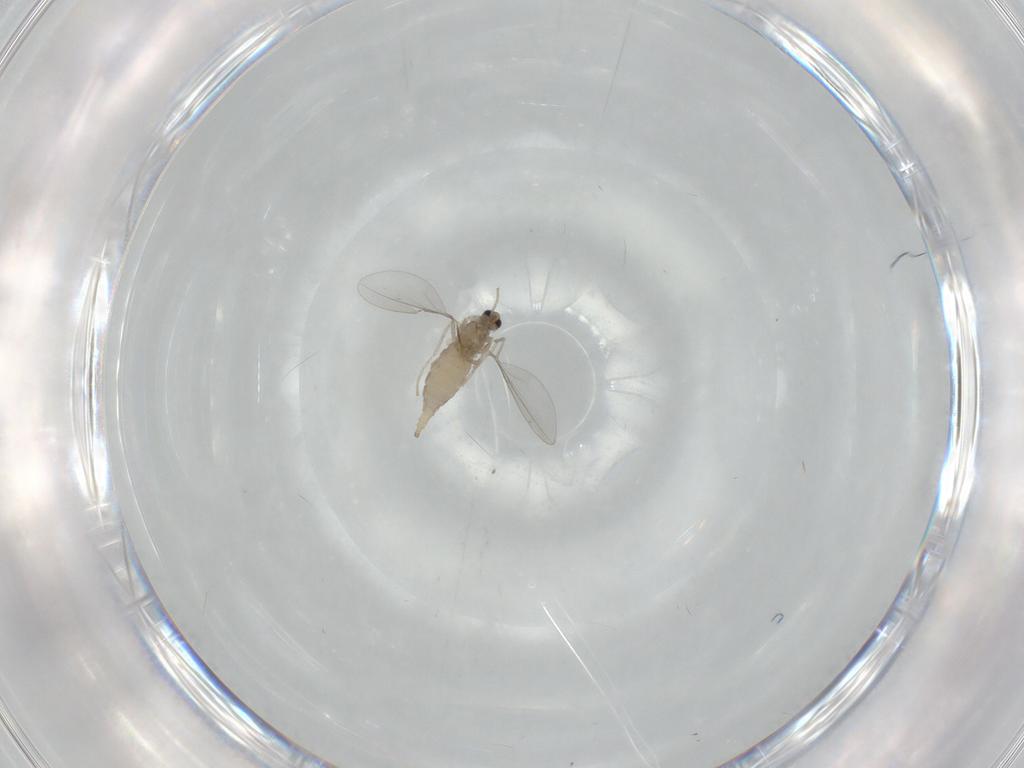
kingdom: Animalia
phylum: Arthropoda
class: Insecta
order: Diptera
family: Cecidomyiidae
